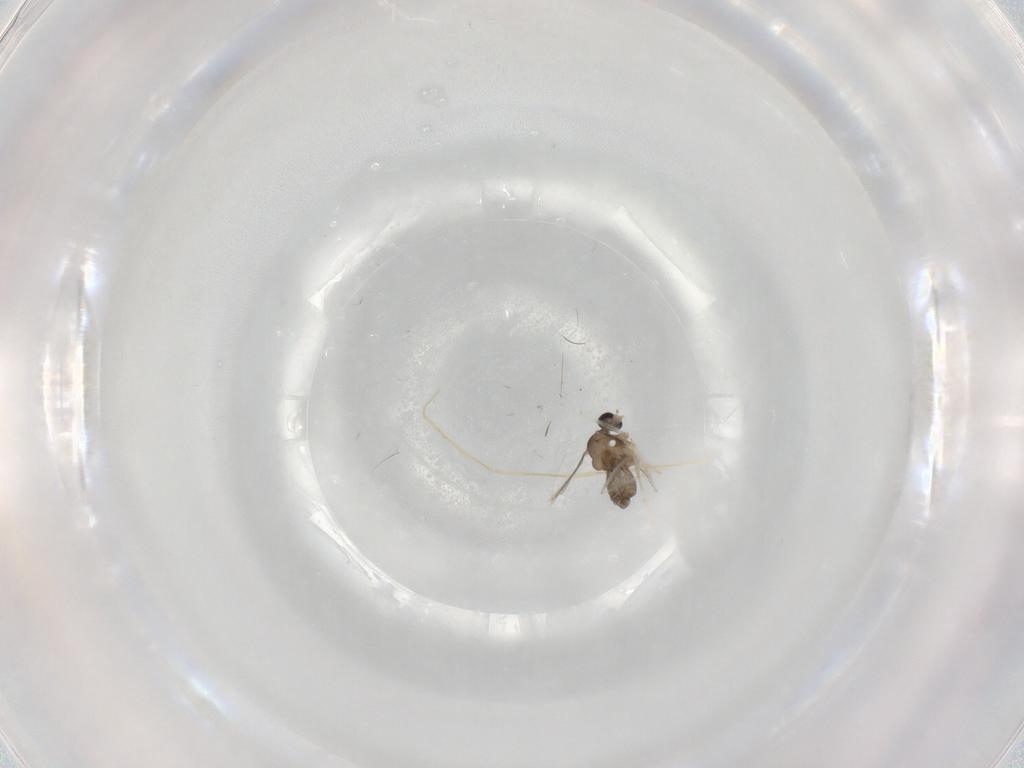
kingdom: Animalia
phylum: Arthropoda
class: Insecta
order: Diptera
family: Cecidomyiidae
